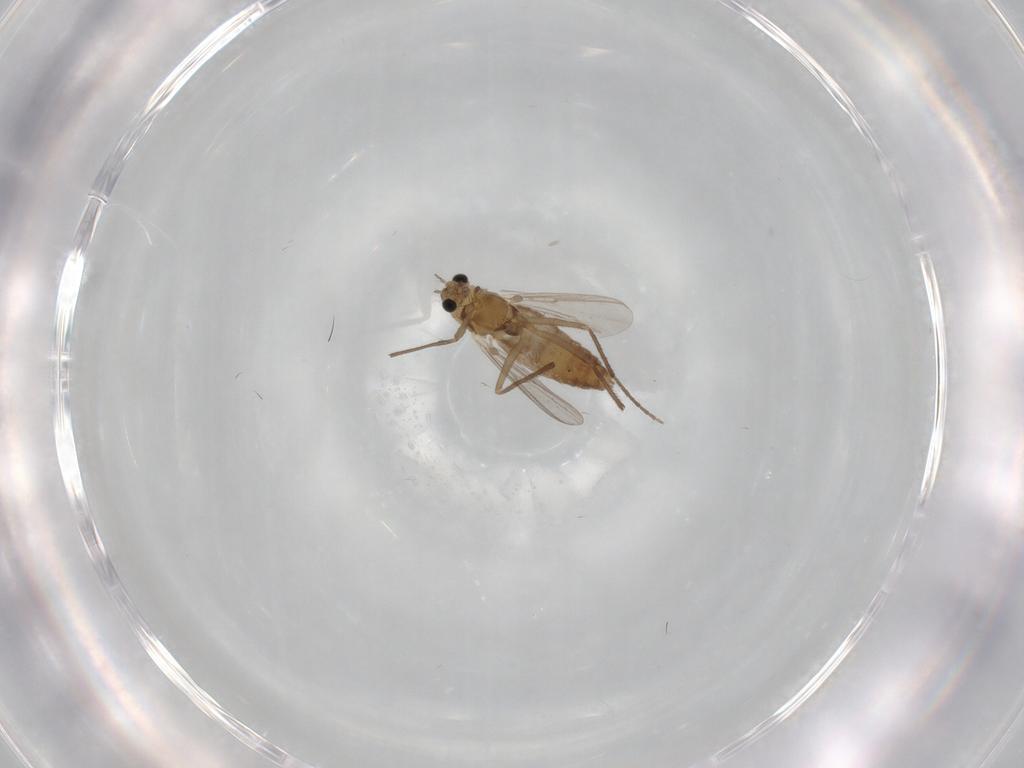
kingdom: Animalia
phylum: Arthropoda
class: Insecta
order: Diptera
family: Chironomidae
